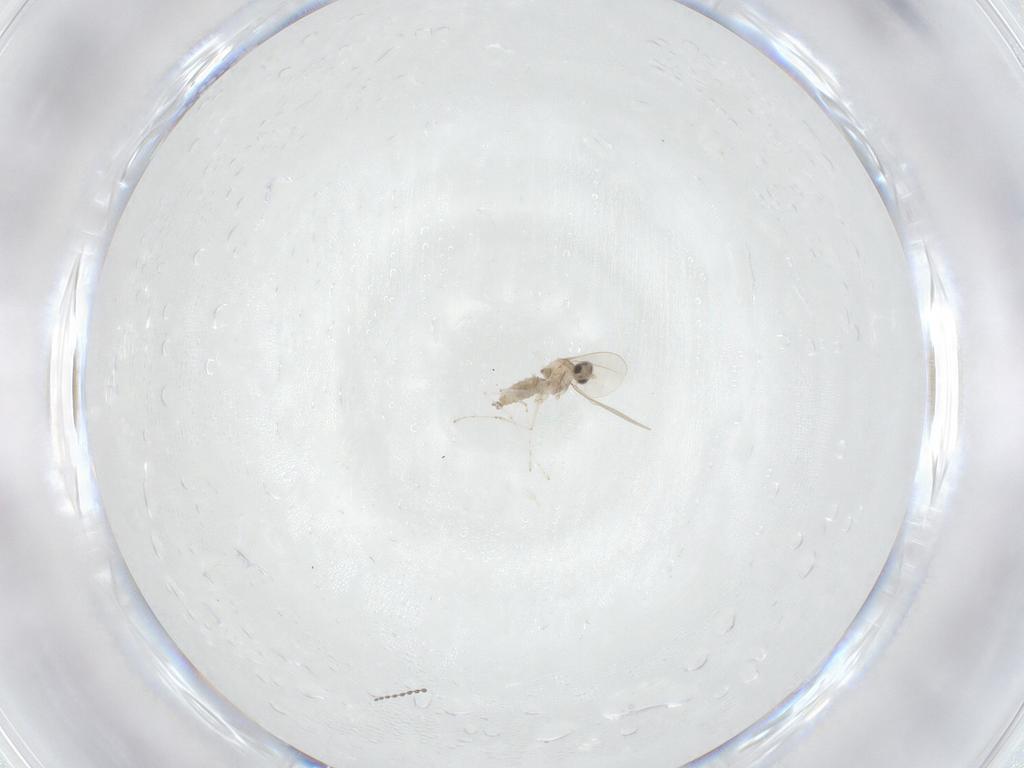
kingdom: Animalia
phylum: Arthropoda
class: Insecta
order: Diptera
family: Cecidomyiidae
